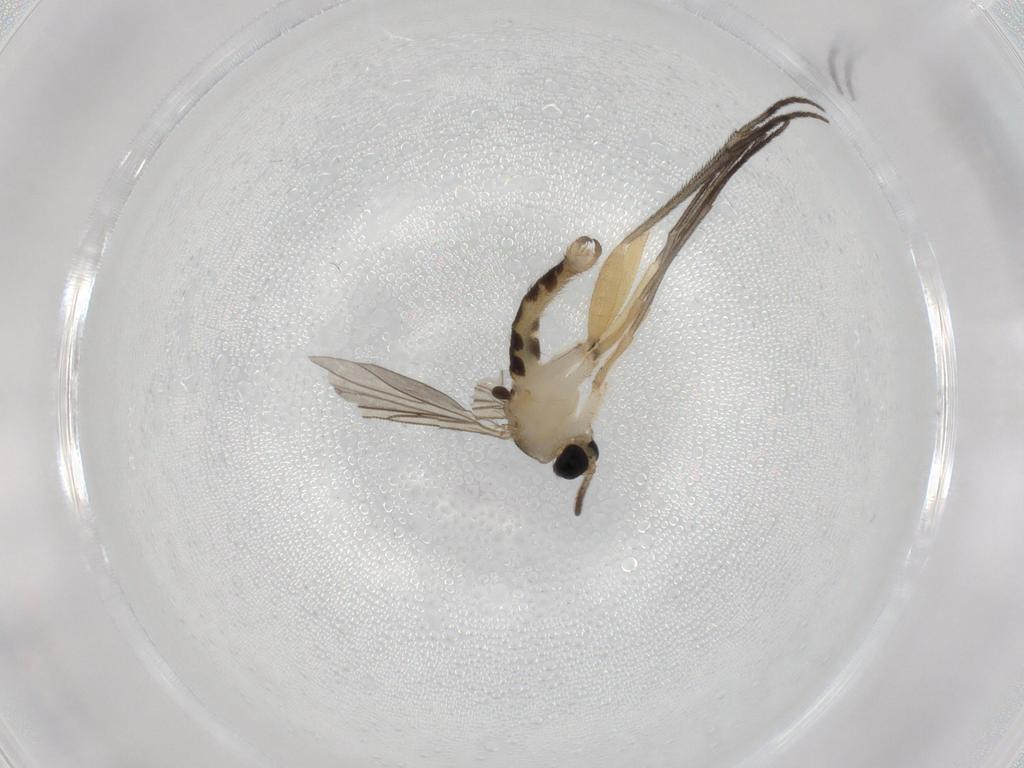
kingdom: Animalia
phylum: Arthropoda
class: Insecta
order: Diptera
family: Sciaridae
